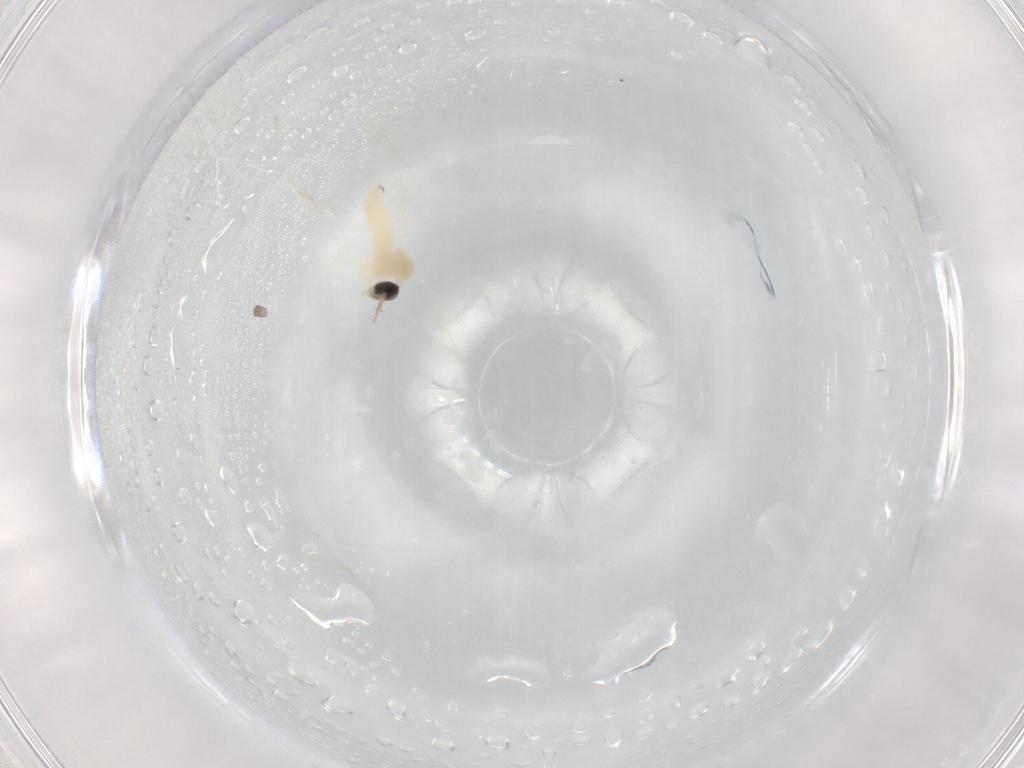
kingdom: Animalia
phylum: Arthropoda
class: Insecta
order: Diptera
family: Cecidomyiidae
